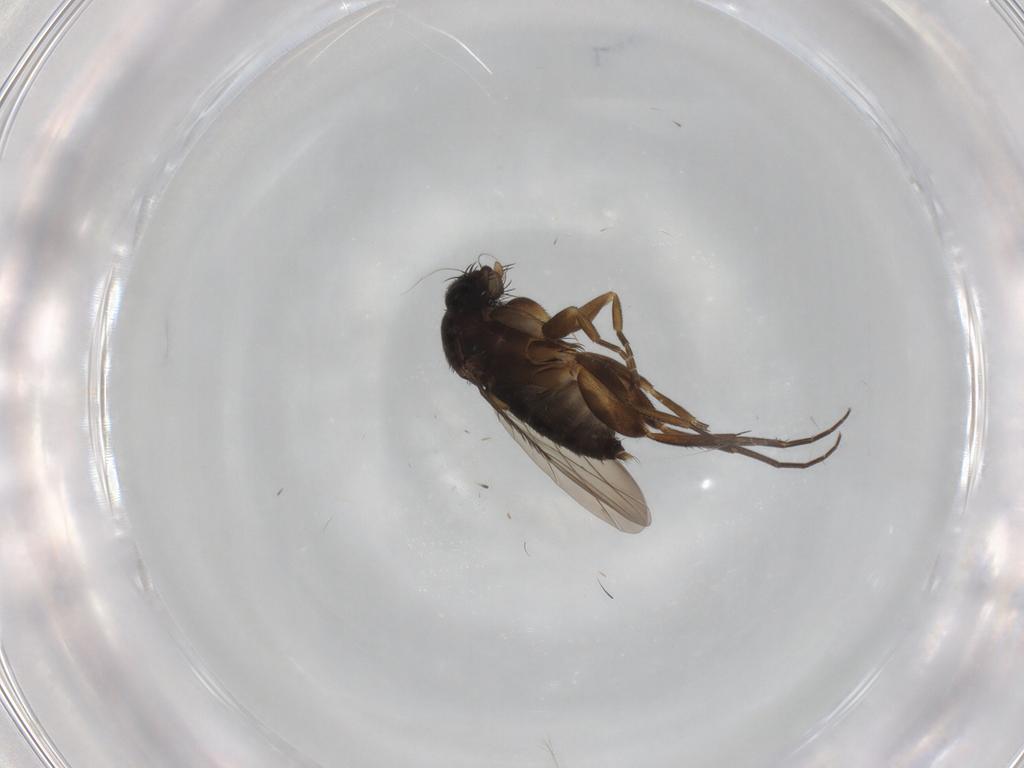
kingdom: Animalia
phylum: Arthropoda
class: Insecta
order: Diptera
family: Phoridae
